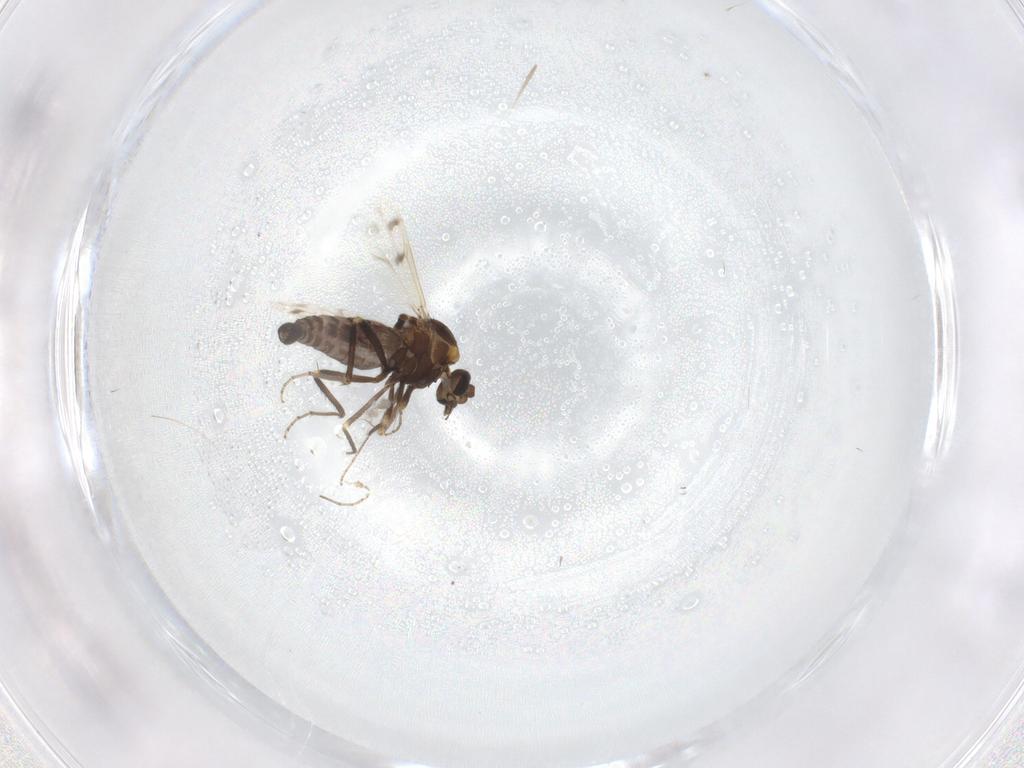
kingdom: Animalia
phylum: Arthropoda
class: Insecta
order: Diptera
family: Ceratopogonidae
